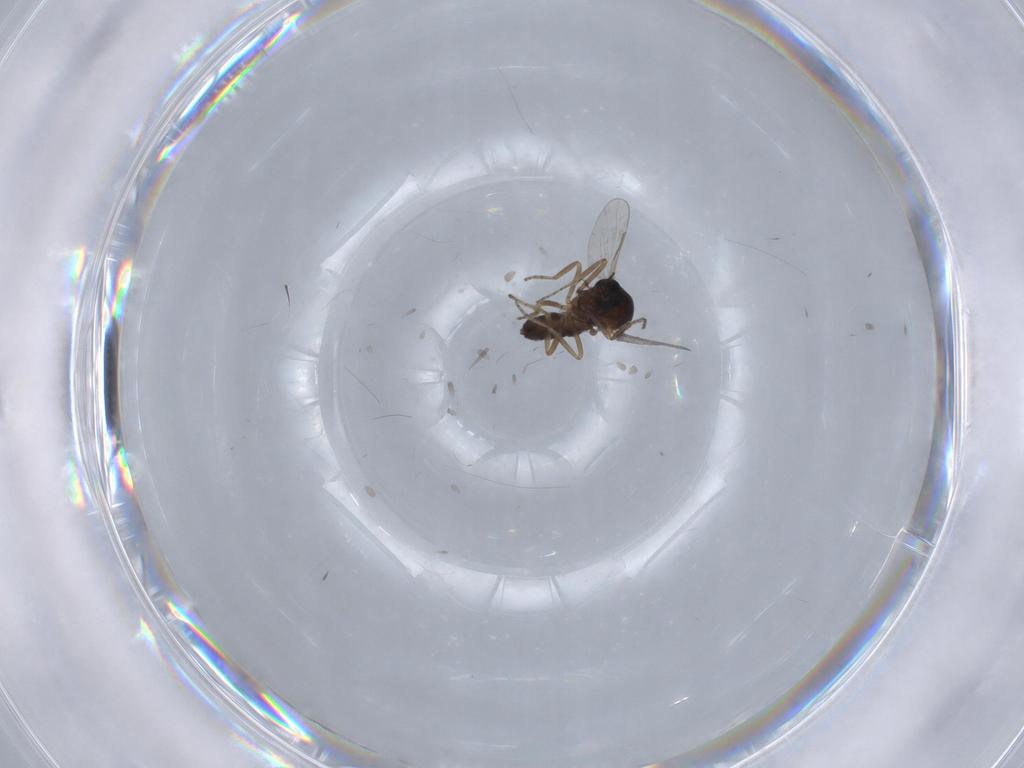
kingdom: Animalia
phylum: Arthropoda
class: Insecta
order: Diptera
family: Ceratopogonidae
